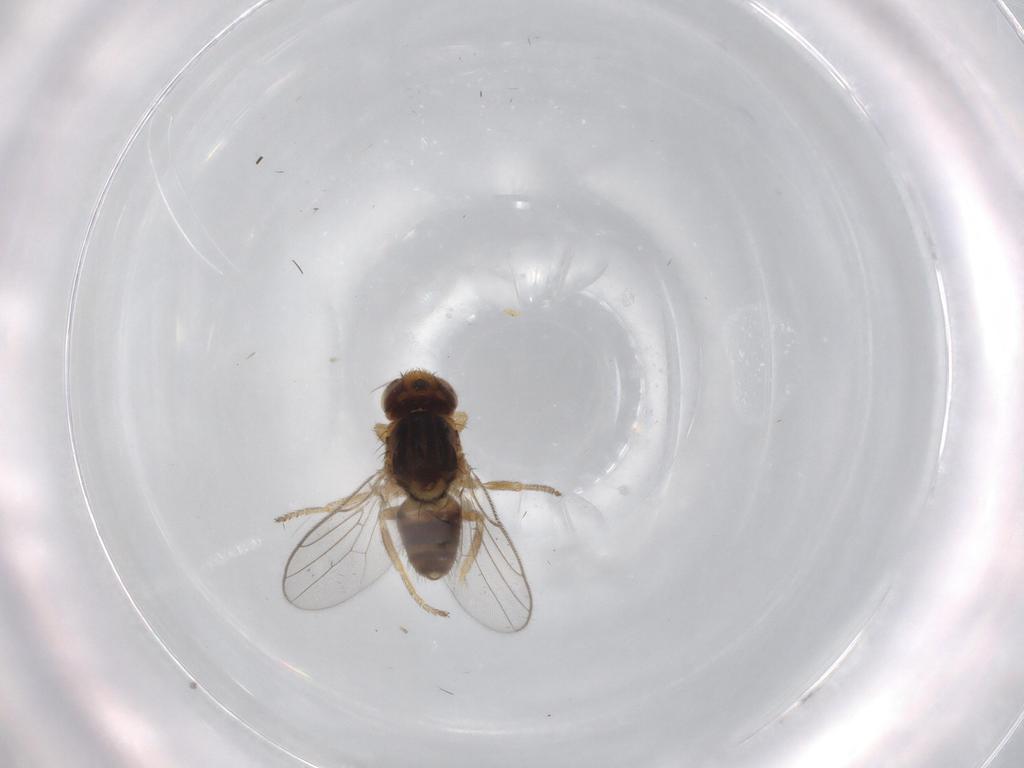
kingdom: Animalia
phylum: Arthropoda
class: Insecta
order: Diptera
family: Chloropidae
